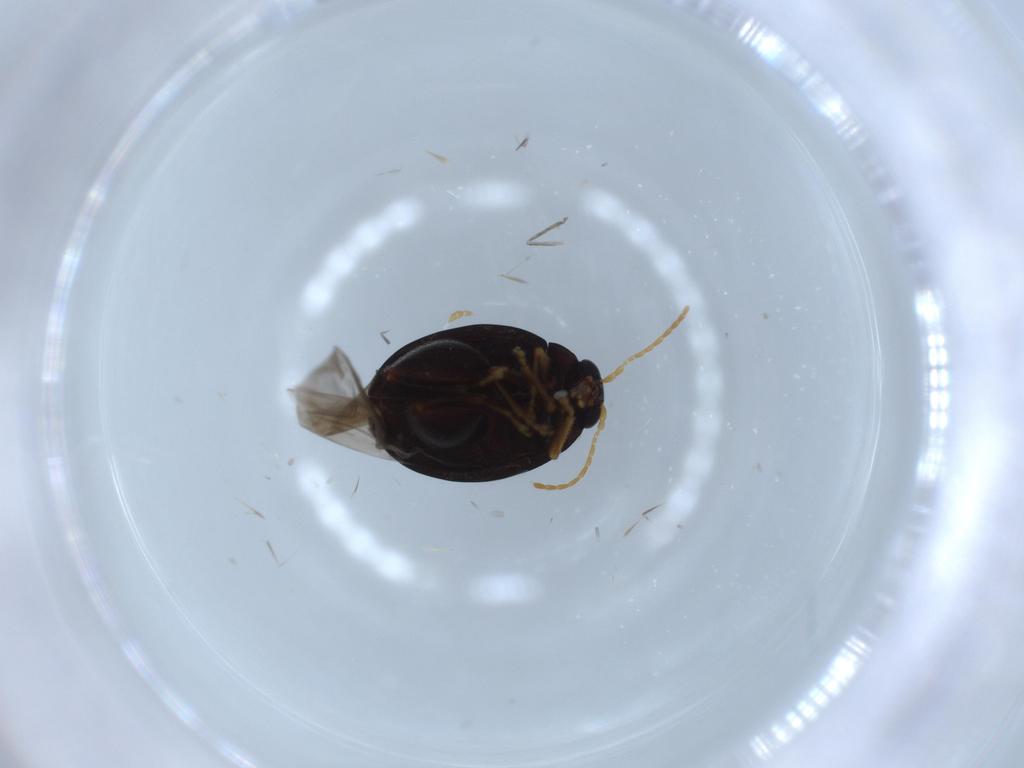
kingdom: Animalia
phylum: Arthropoda
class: Insecta
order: Coleoptera
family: Chrysomelidae
